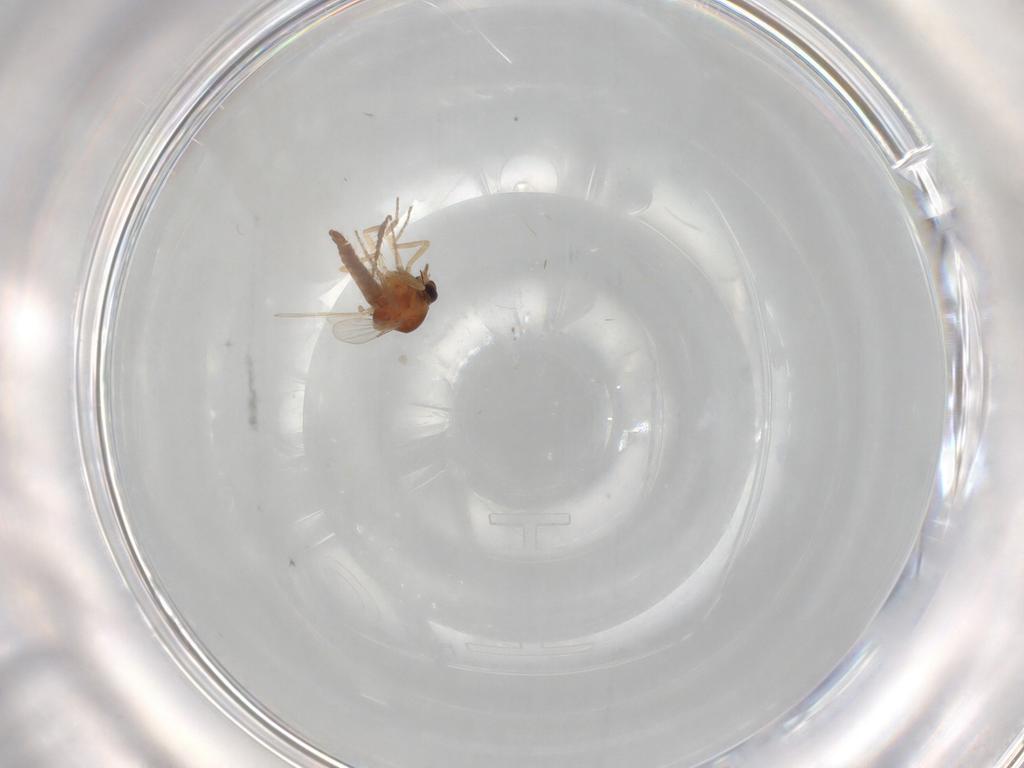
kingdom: Animalia
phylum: Arthropoda
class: Insecta
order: Diptera
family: Ceratopogonidae
